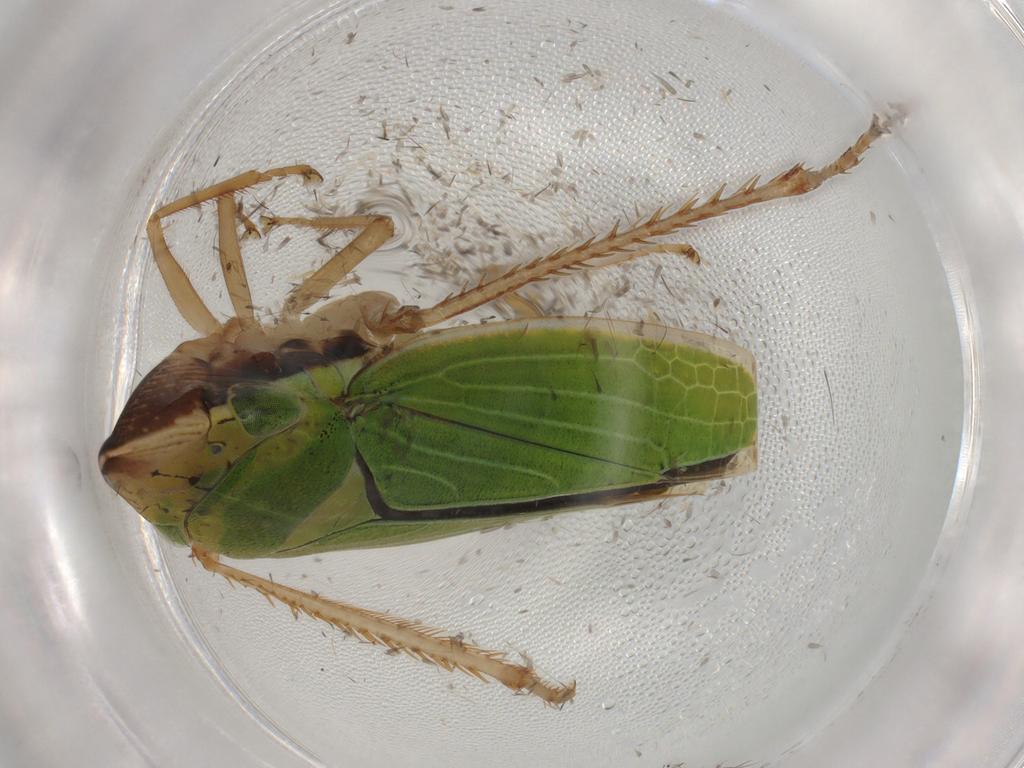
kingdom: Animalia
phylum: Arthropoda
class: Insecta
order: Hemiptera
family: Cicadellidae
